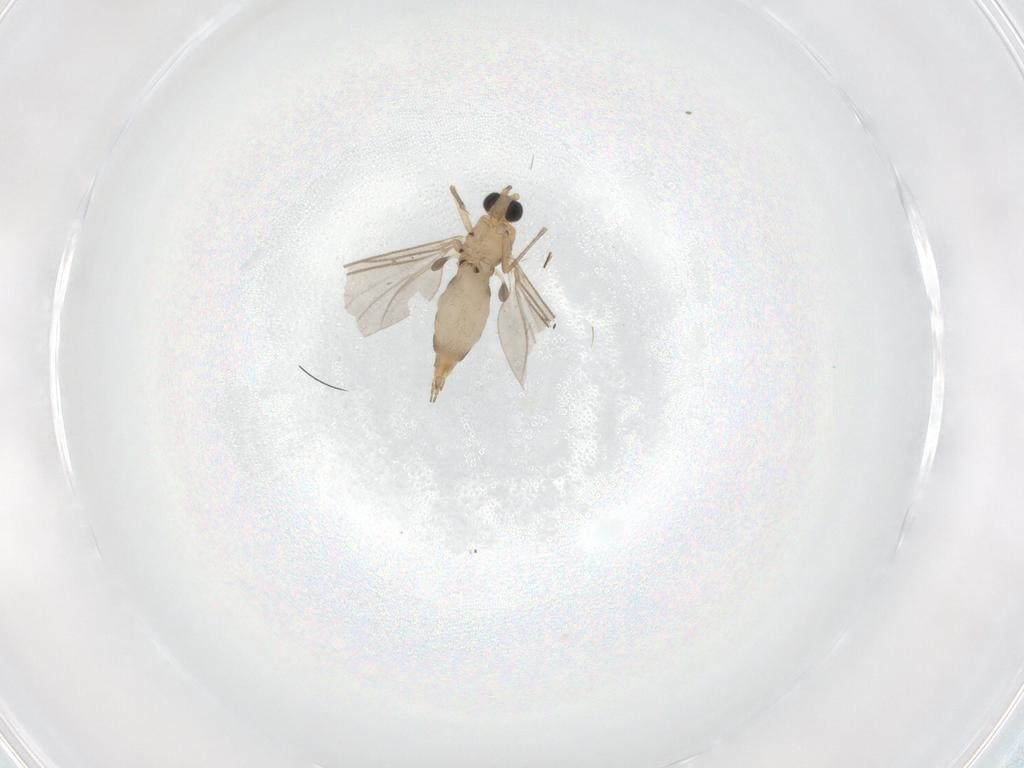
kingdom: Animalia
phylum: Arthropoda
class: Insecta
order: Diptera
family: Sciaridae
